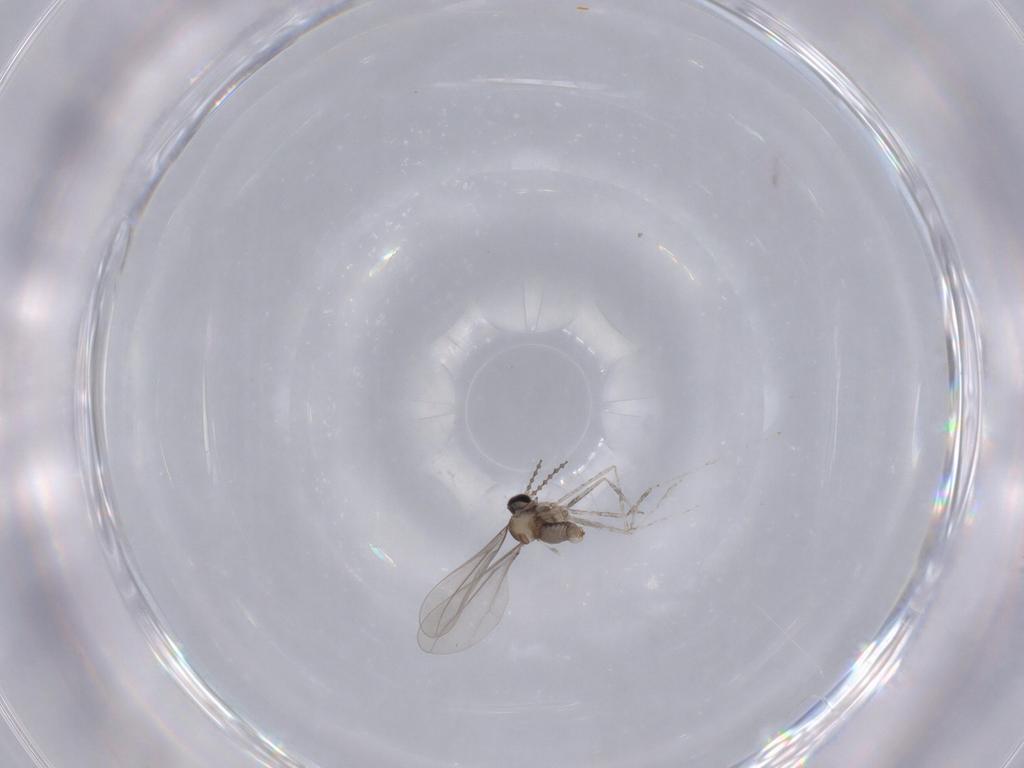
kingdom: Animalia
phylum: Arthropoda
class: Insecta
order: Diptera
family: Cecidomyiidae
